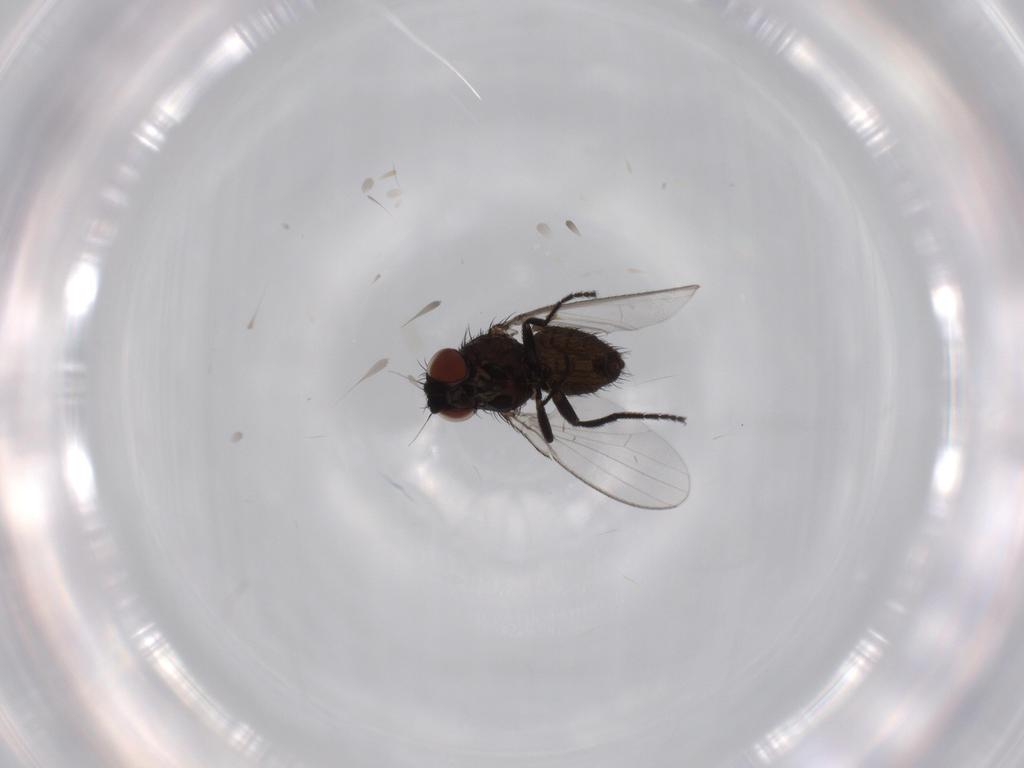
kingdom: Animalia
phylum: Arthropoda
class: Insecta
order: Diptera
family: Milichiidae
